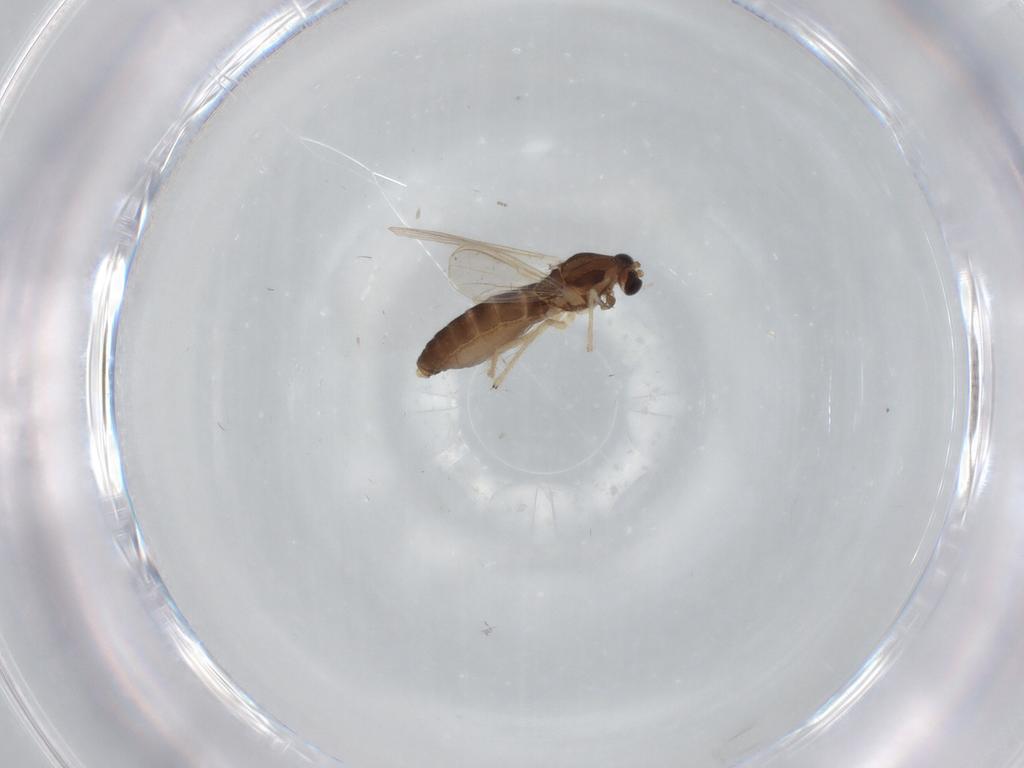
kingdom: Animalia
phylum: Arthropoda
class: Insecta
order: Diptera
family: Chironomidae
